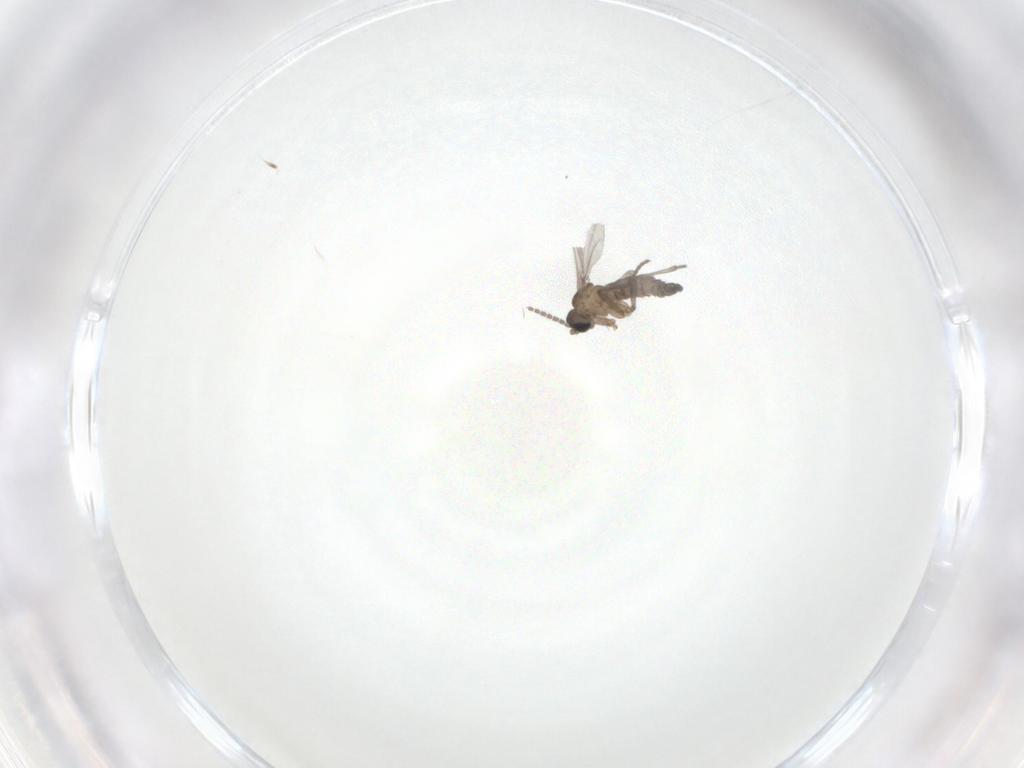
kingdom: Animalia
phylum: Arthropoda
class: Insecta
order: Diptera
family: Sciaridae
